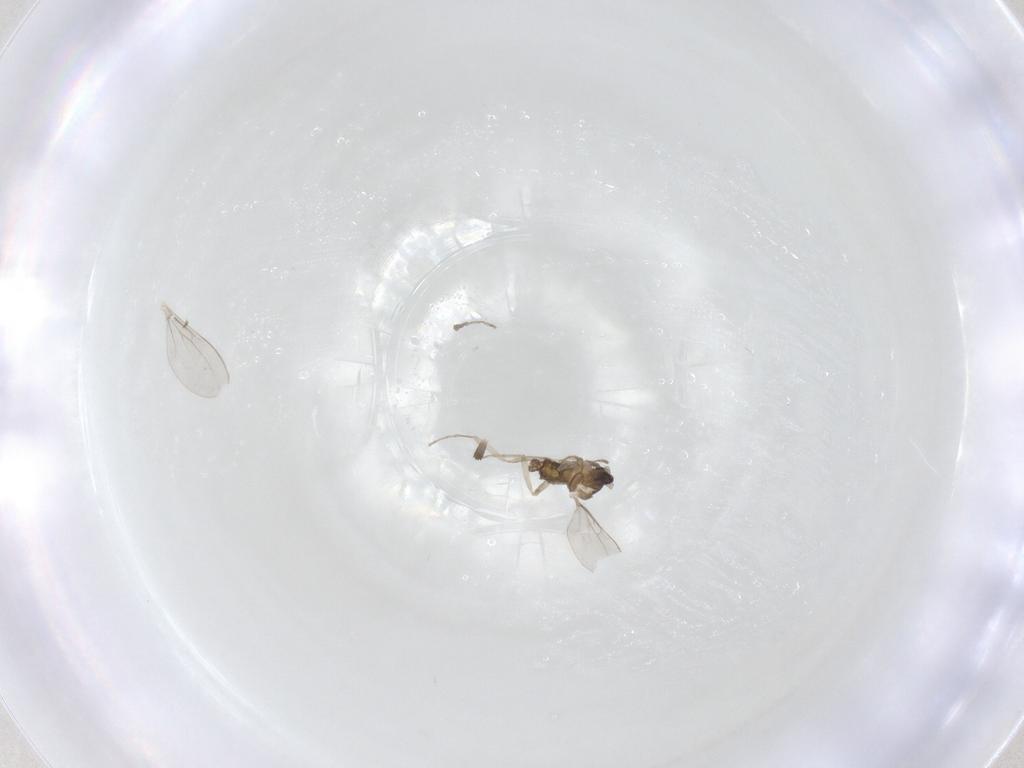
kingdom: Animalia
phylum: Arthropoda
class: Insecta
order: Diptera
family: Cecidomyiidae
